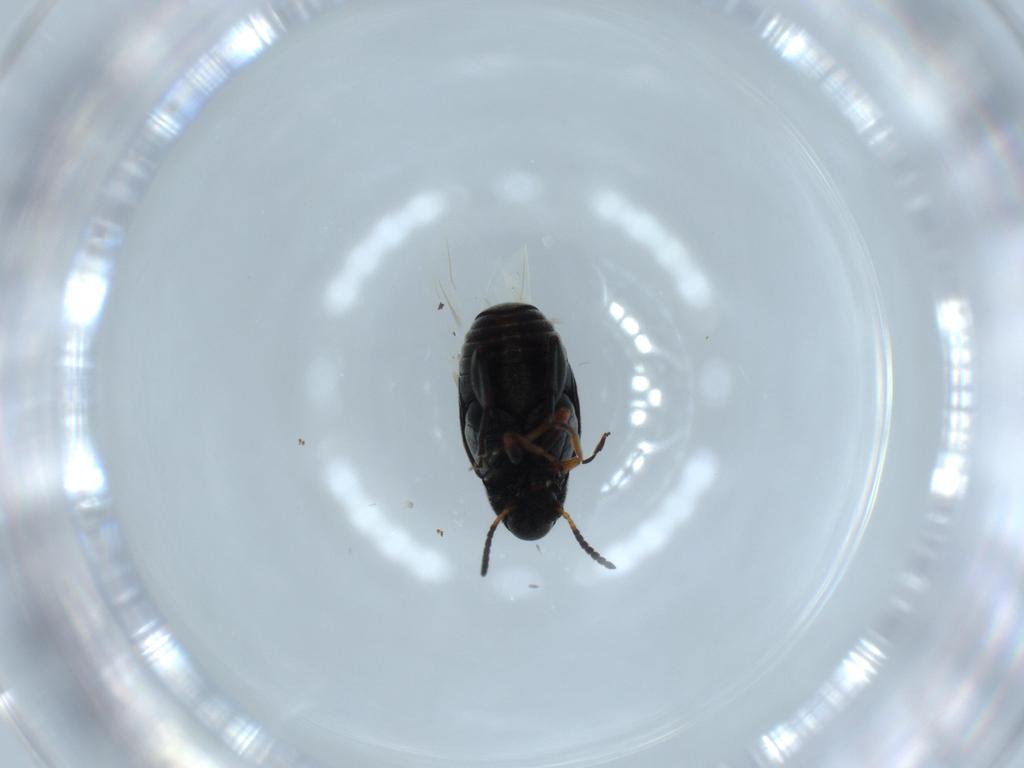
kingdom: Animalia
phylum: Arthropoda
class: Insecta
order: Coleoptera
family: Chrysomelidae
